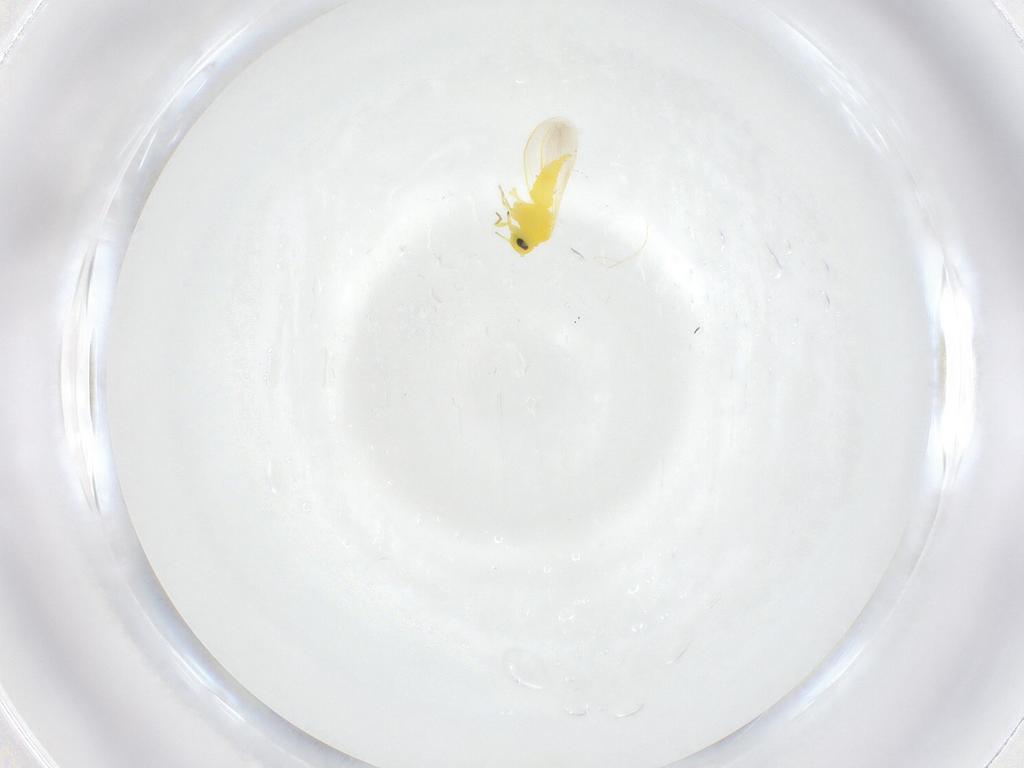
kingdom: Animalia
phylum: Arthropoda
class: Insecta
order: Hemiptera
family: Aleyrodidae
